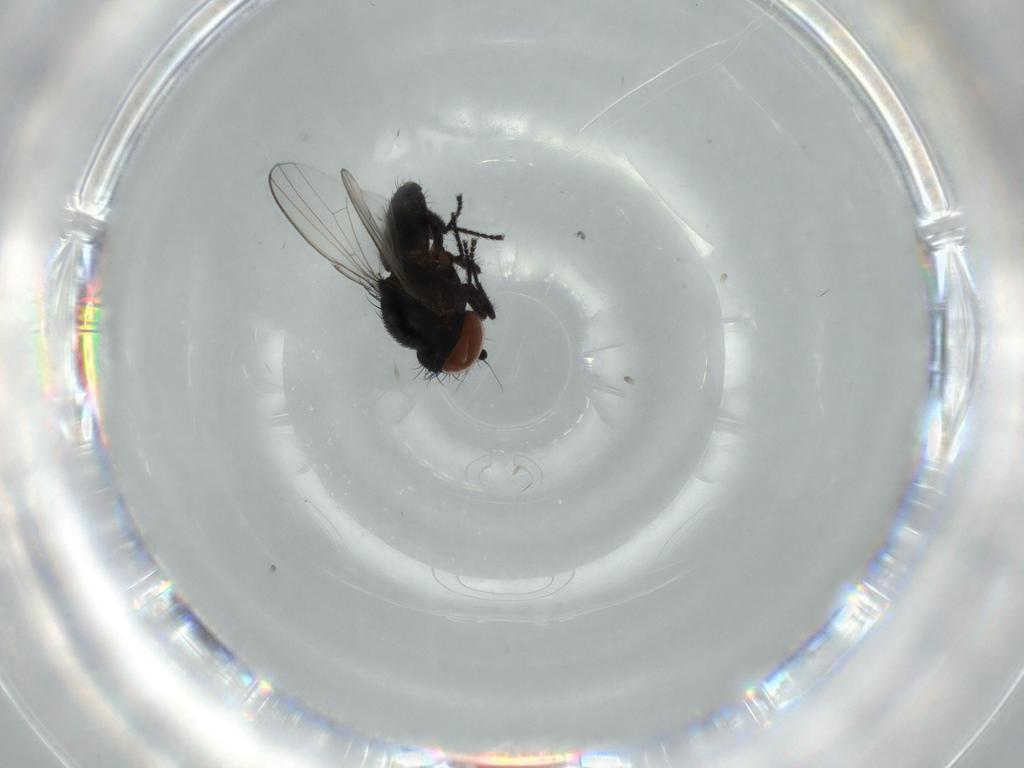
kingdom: Animalia
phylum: Arthropoda
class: Insecta
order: Diptera
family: Milichiidae
